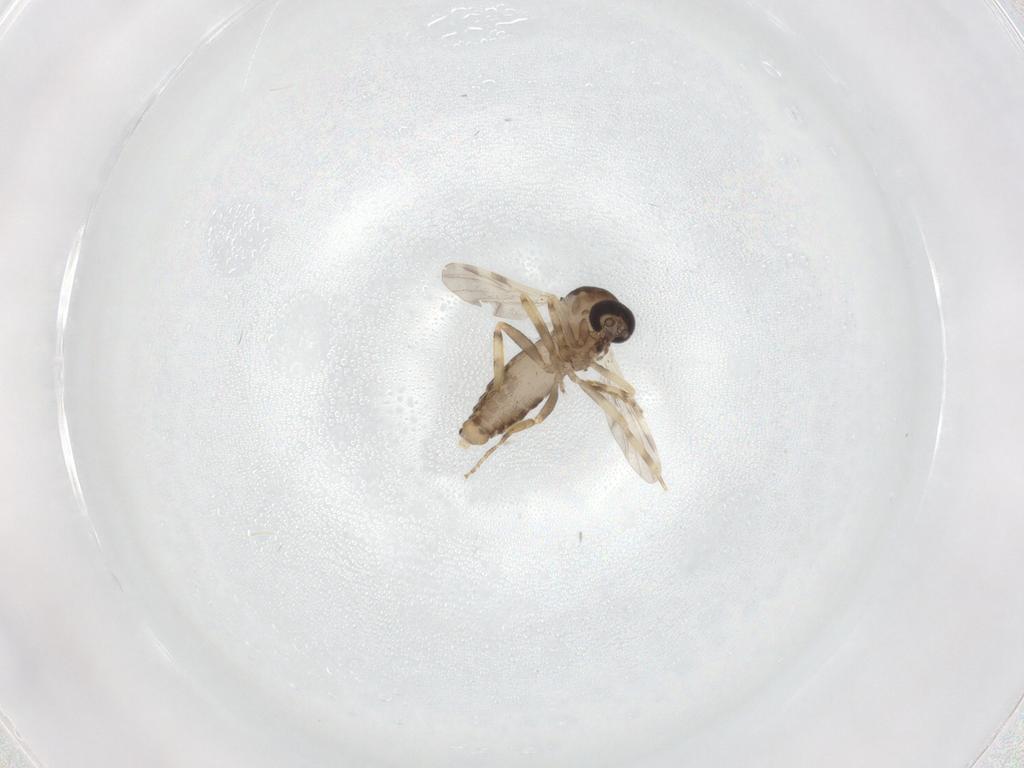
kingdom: Animalia
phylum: Arthropoda
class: Insecta
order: Diptera
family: Ceratopogonidae
